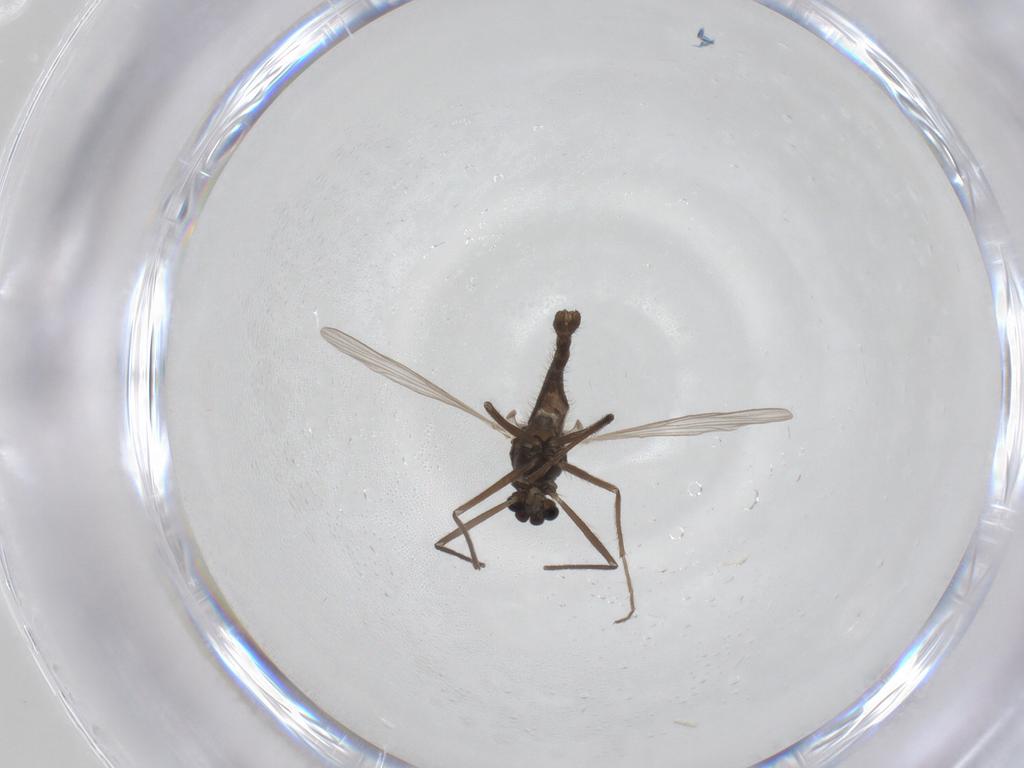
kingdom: Animalia
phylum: Arthropoda
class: Insecta
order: Diptera
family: Chironomidae
